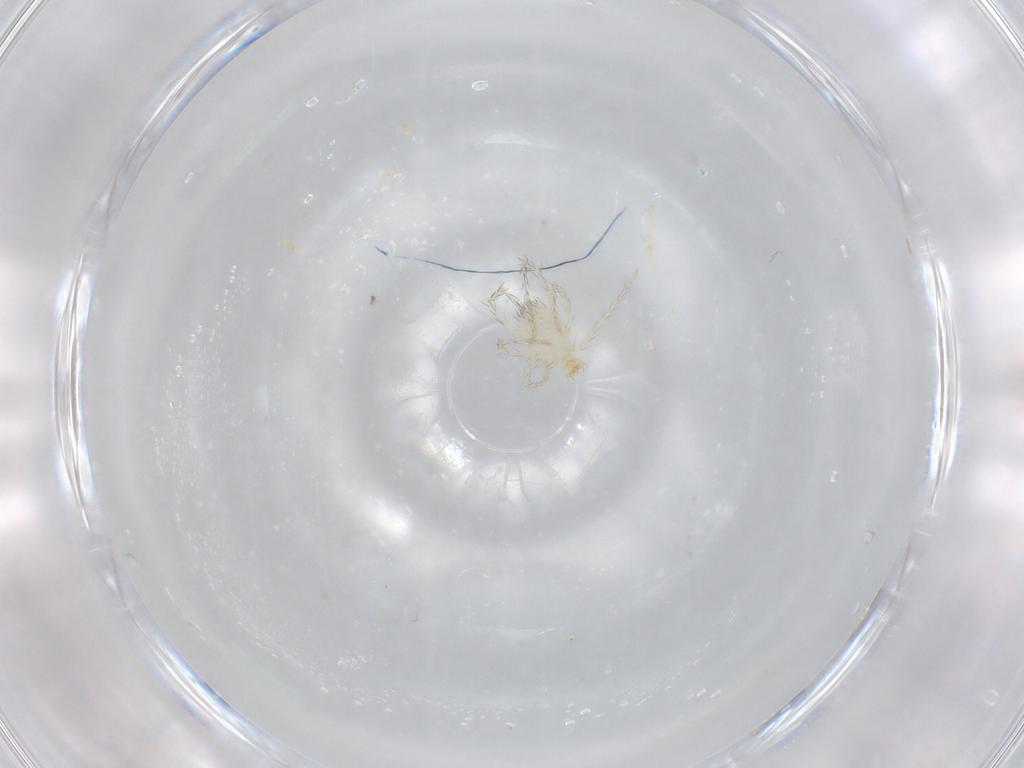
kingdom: Animalia
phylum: Arthropoda
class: Arachnida
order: Trombidiformes
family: Erythraeidae
